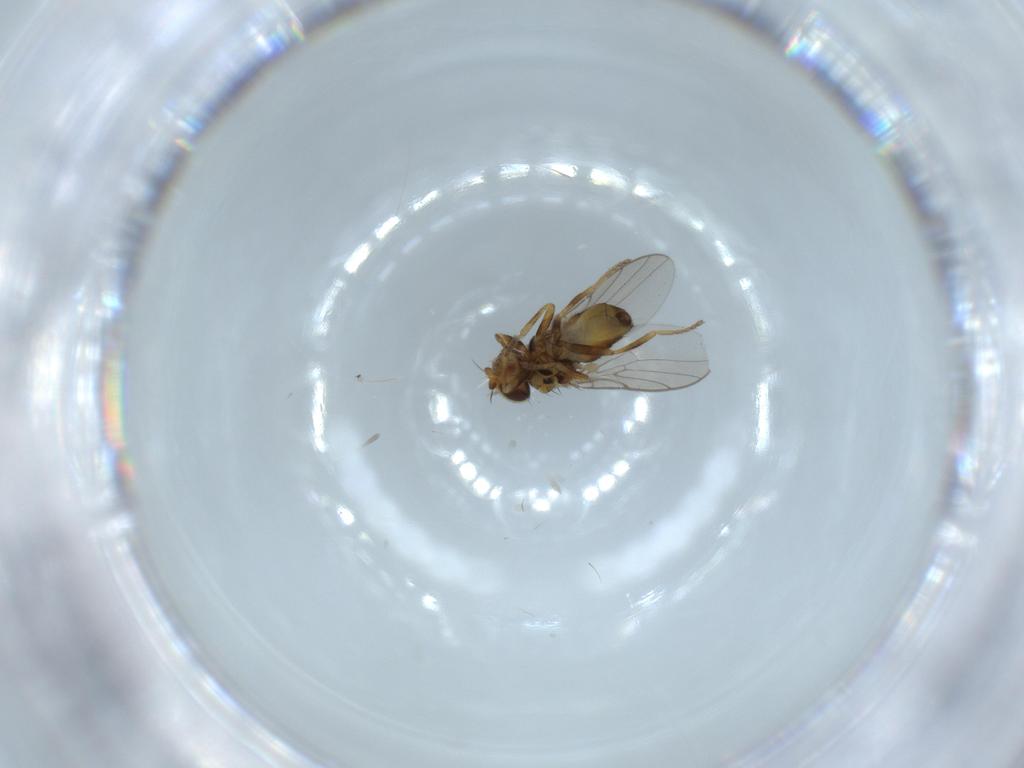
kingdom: Animalia
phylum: Arthropoda
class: Insecta
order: Diptera
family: Chloropidae
